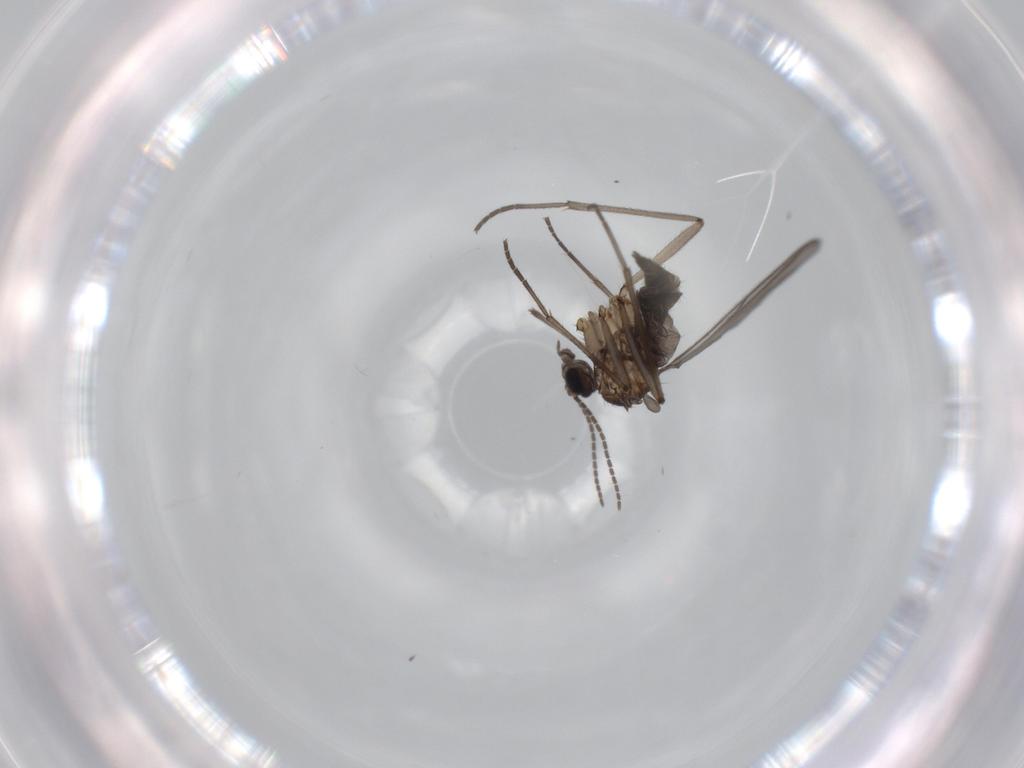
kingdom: Animalia
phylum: Arthropoda
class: Insecta
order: Diptera
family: Sciaridae
